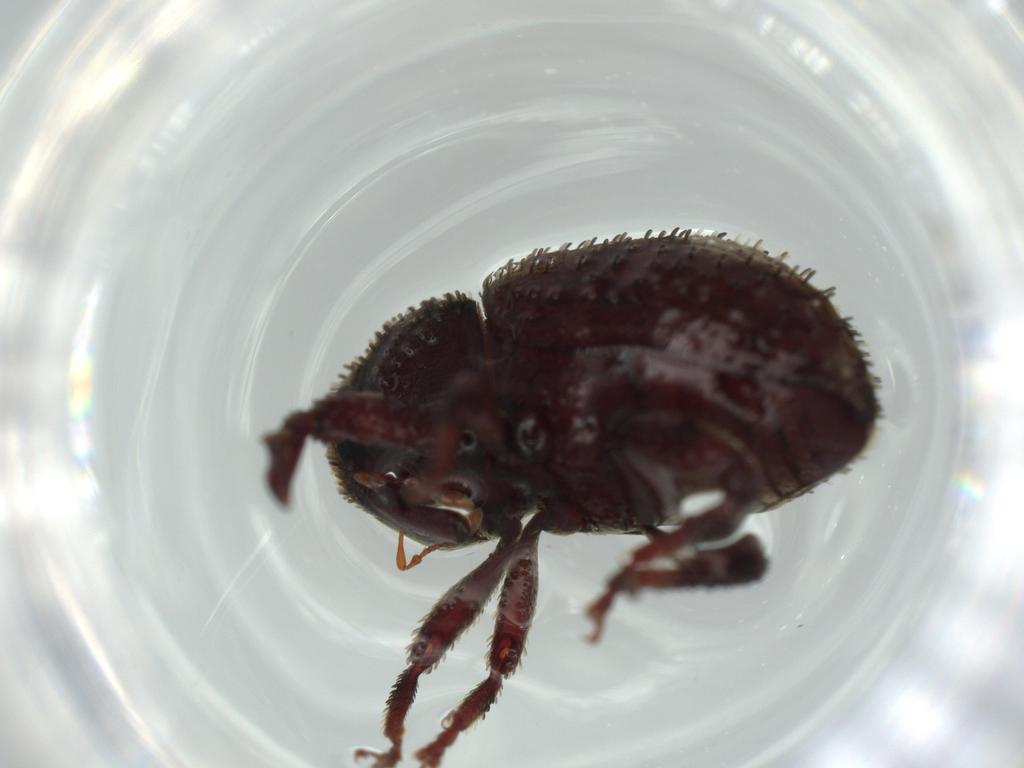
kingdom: Animalia
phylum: Arthropoda
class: Insecta
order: Coleoptera
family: Curculionidae
